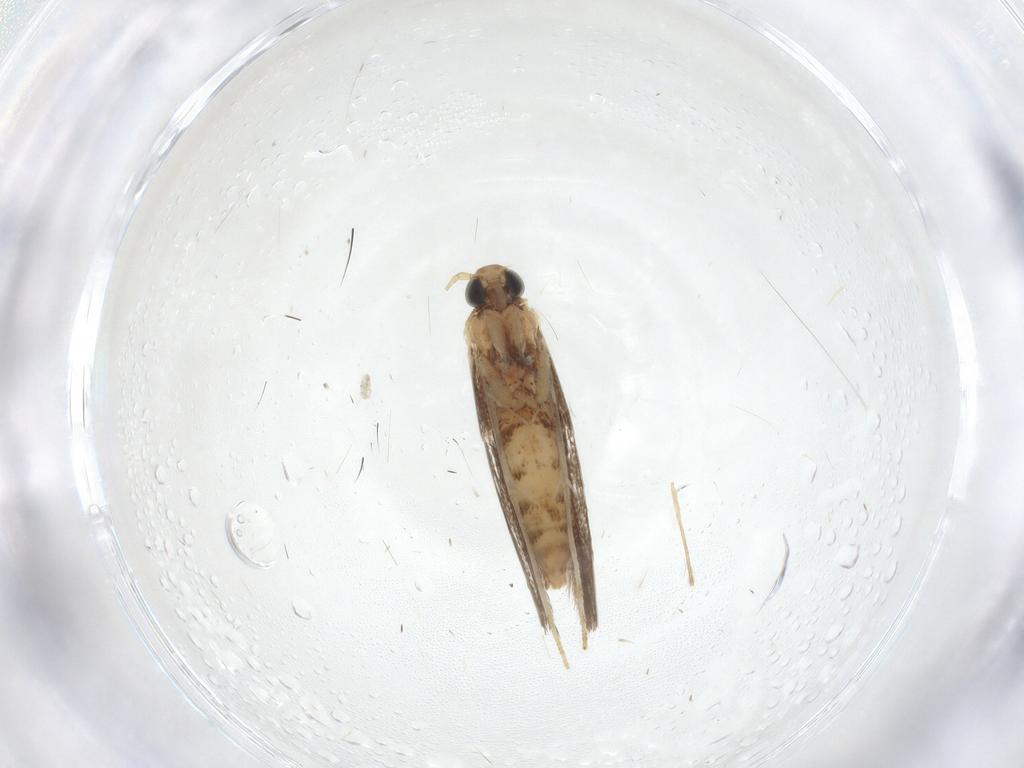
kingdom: Animalia
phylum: Arthropoda
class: Insecta
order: Lepidoptera
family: Gracillariidae
